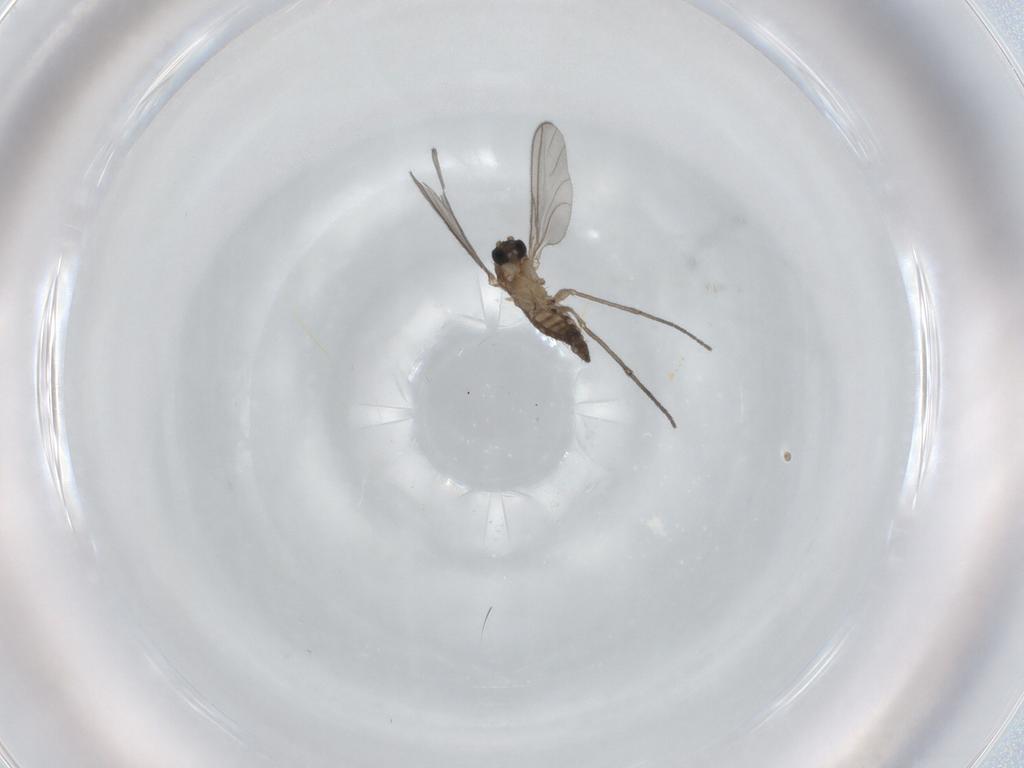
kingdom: Animalia
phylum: Arthropoda
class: Insecta
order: Diptera
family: Sciaridae
